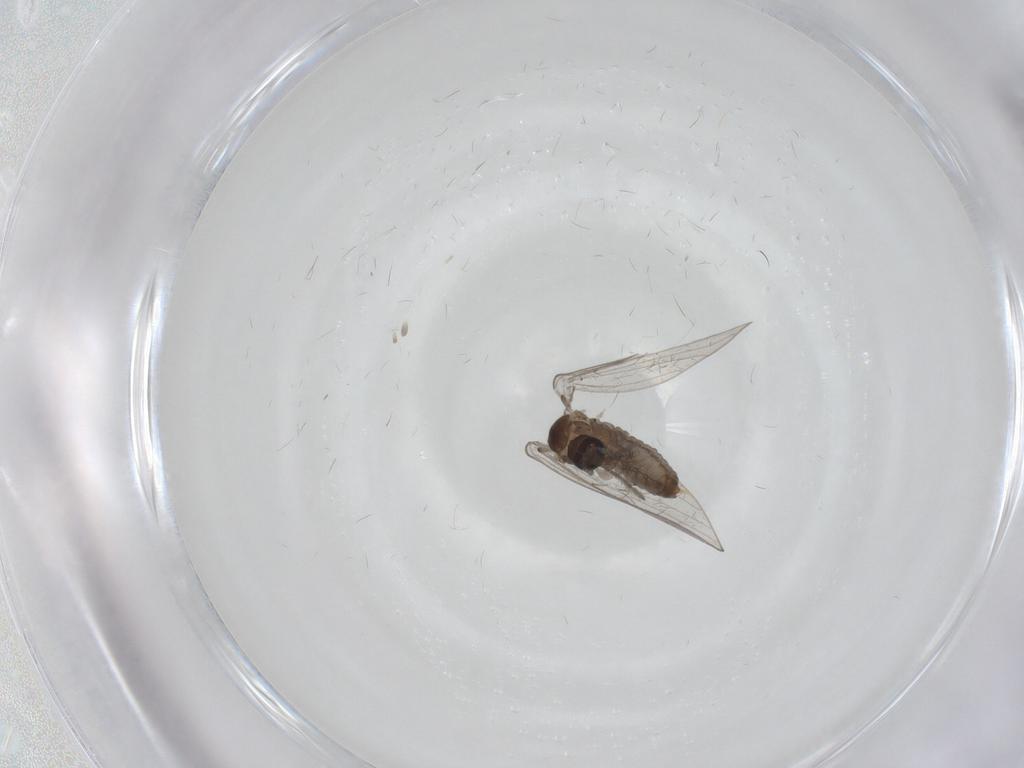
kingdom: Animalia
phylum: Arthropoda
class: Insecta
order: Diptera
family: Psychodidae
